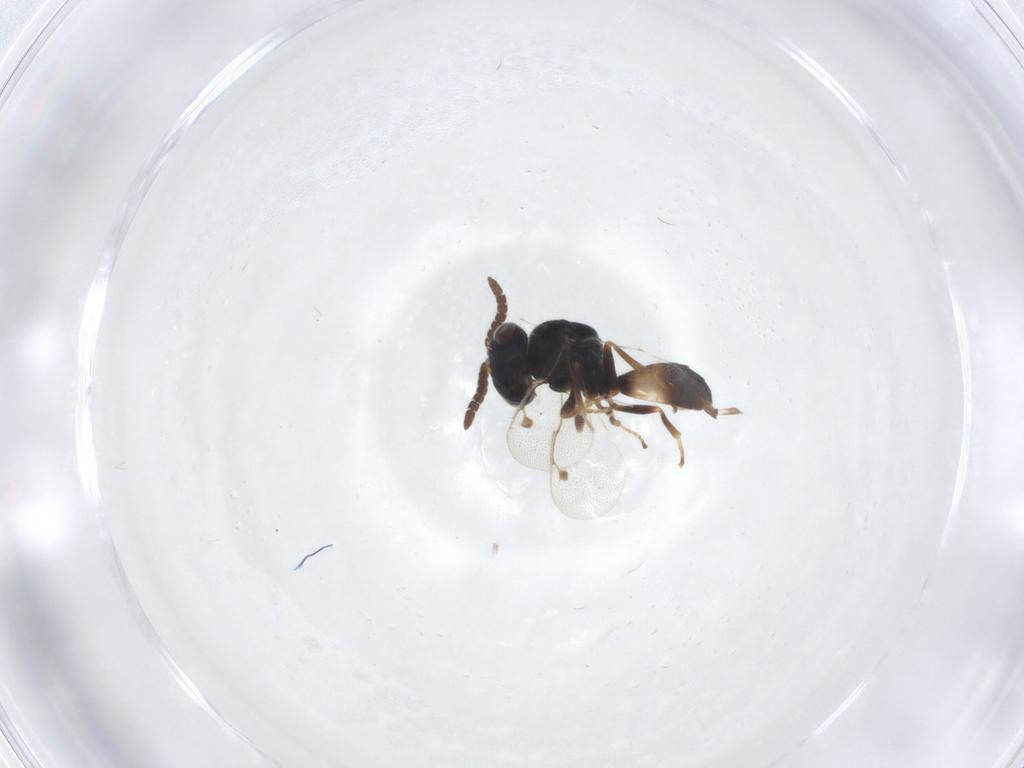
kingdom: Animalia
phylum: Arthropoda
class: Insecta
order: Hymenoptera
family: Pteromalidae
